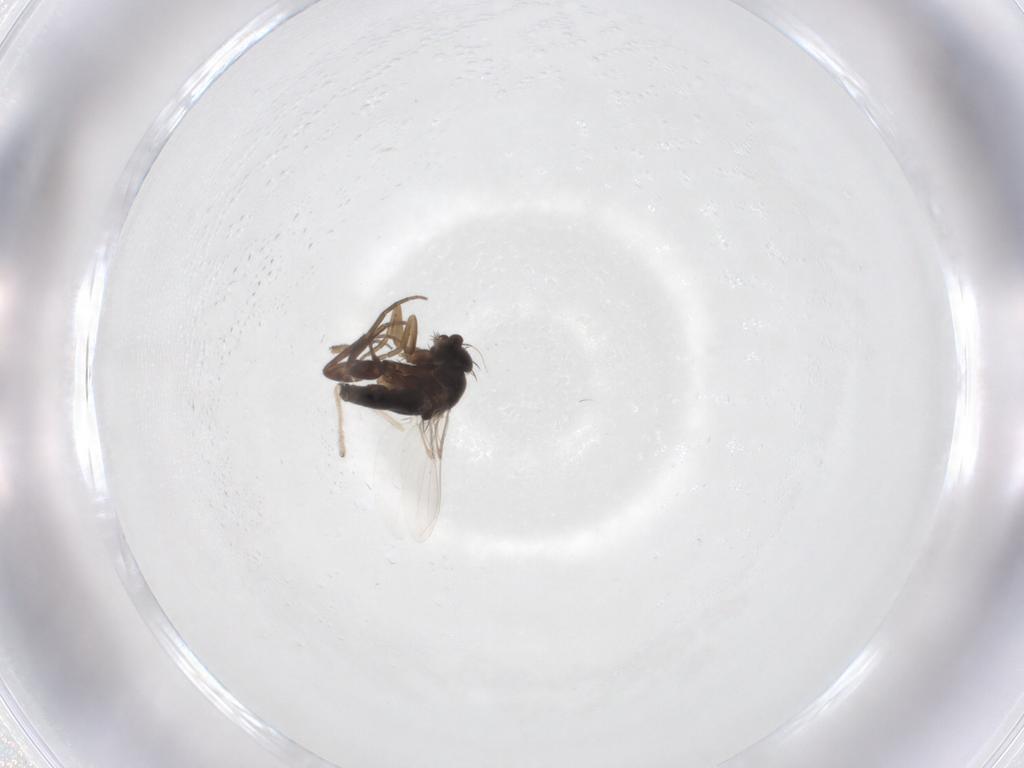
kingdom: Animalia
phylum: Arthropoda
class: Insecta
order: Diptera
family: Phoridae
